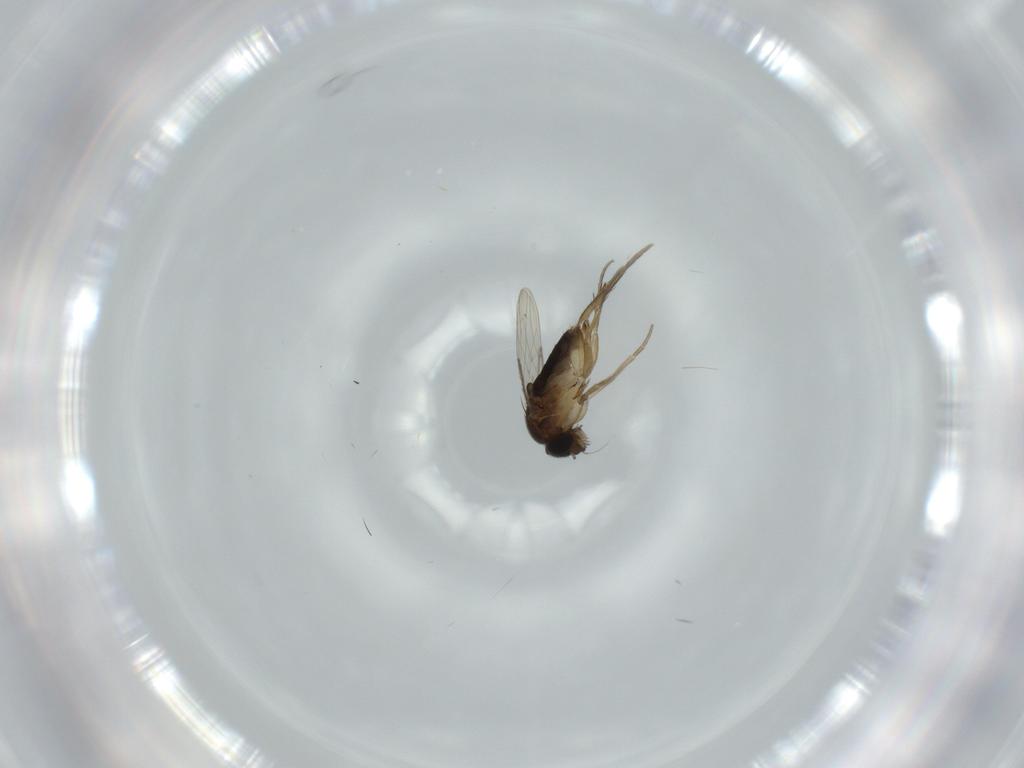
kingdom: Animalia
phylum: Arthropoda
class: Insecta
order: Diptera
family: Phoridae
